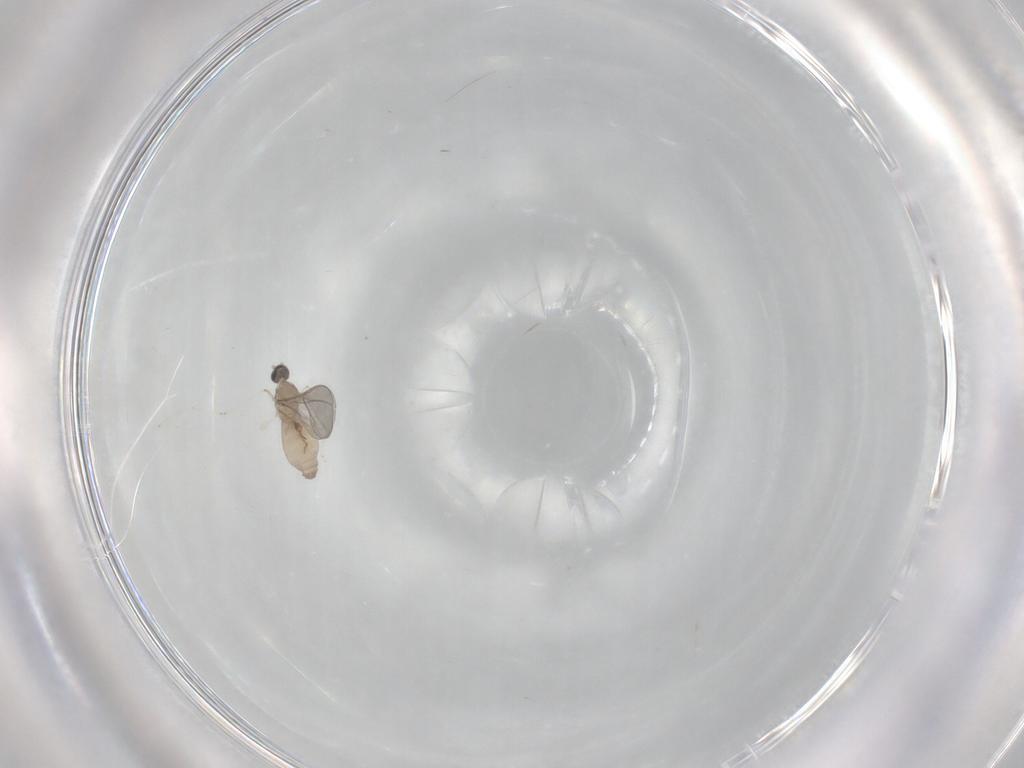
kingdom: Animalia
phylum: Arthropoda
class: Insecta
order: Diptera
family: Cecidomyiidae
